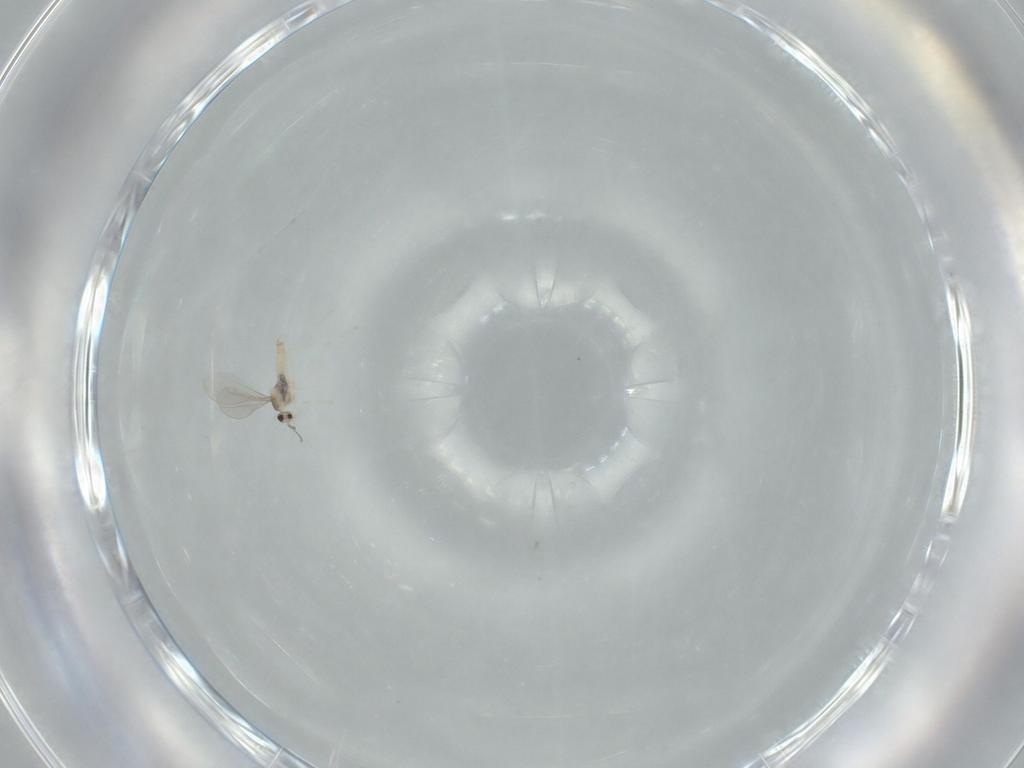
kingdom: Animalia
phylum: Arthropoda
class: Insecta
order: Diptera
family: Cecidomyiidae
